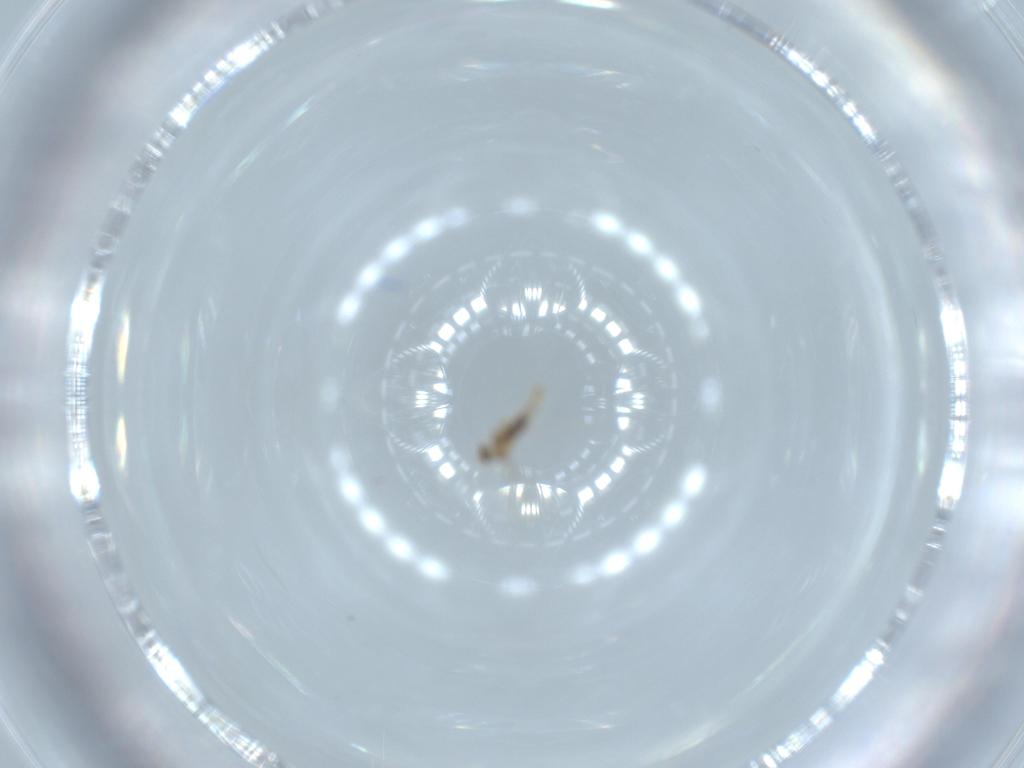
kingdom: Animalia
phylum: Arthropoda
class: Insecta
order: Diptera
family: Cecidomyiidae
